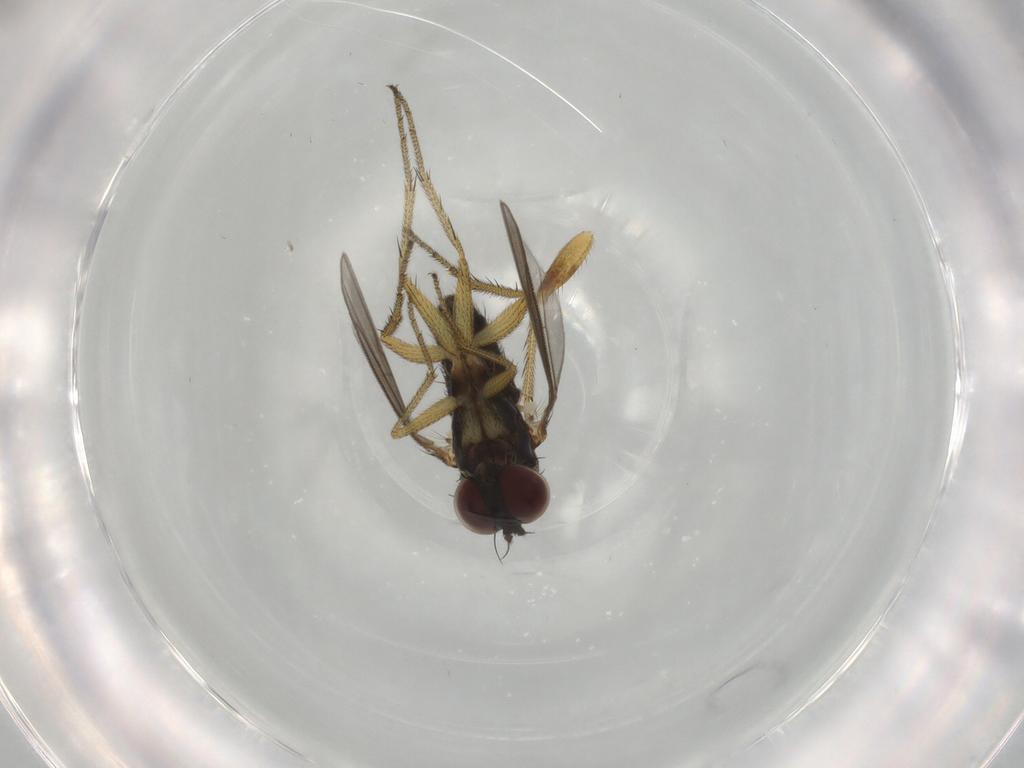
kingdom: Animalia
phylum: Arthropoda
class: Insecta
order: Diptera
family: Dolichopodidae
